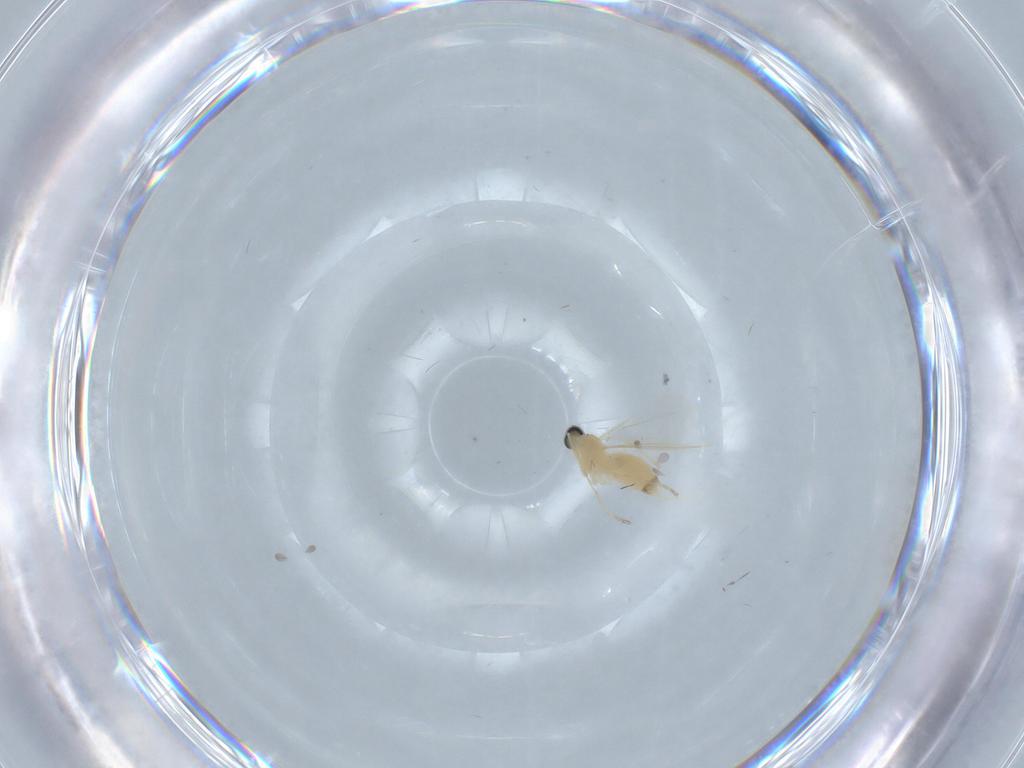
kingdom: Animalia
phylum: Arthropoda
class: Insecta
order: Diptera
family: Cecidomyiidae
